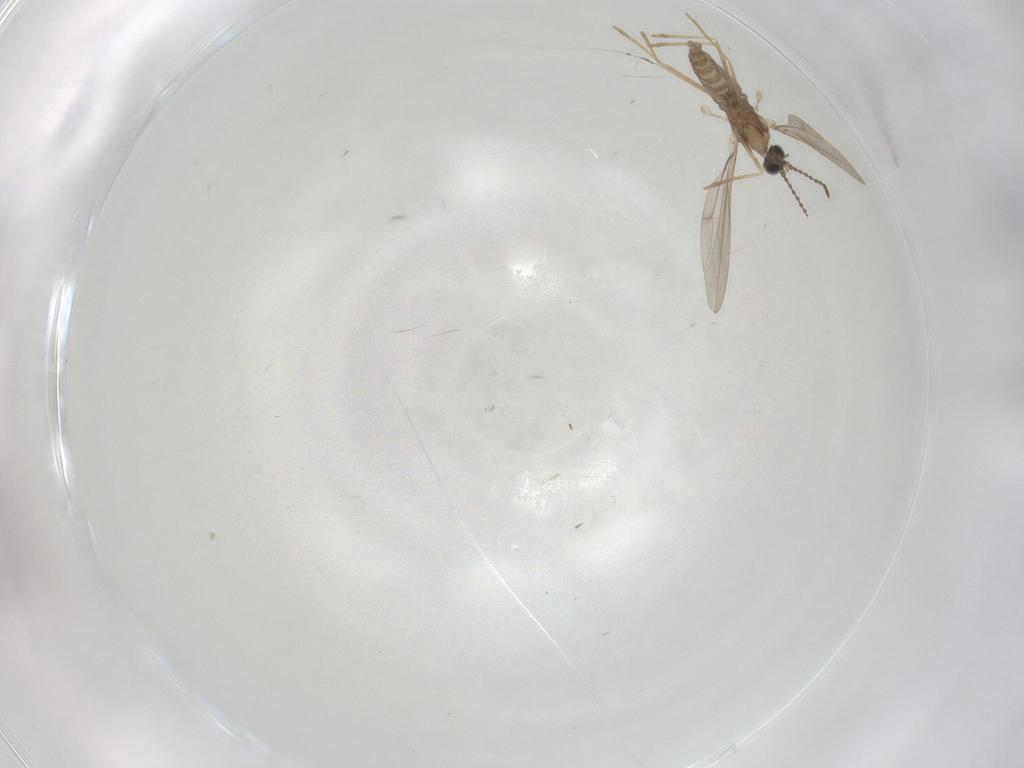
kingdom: Animalia
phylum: Arthropoda
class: Insecta
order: Diptera
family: Cecidomyiidae
